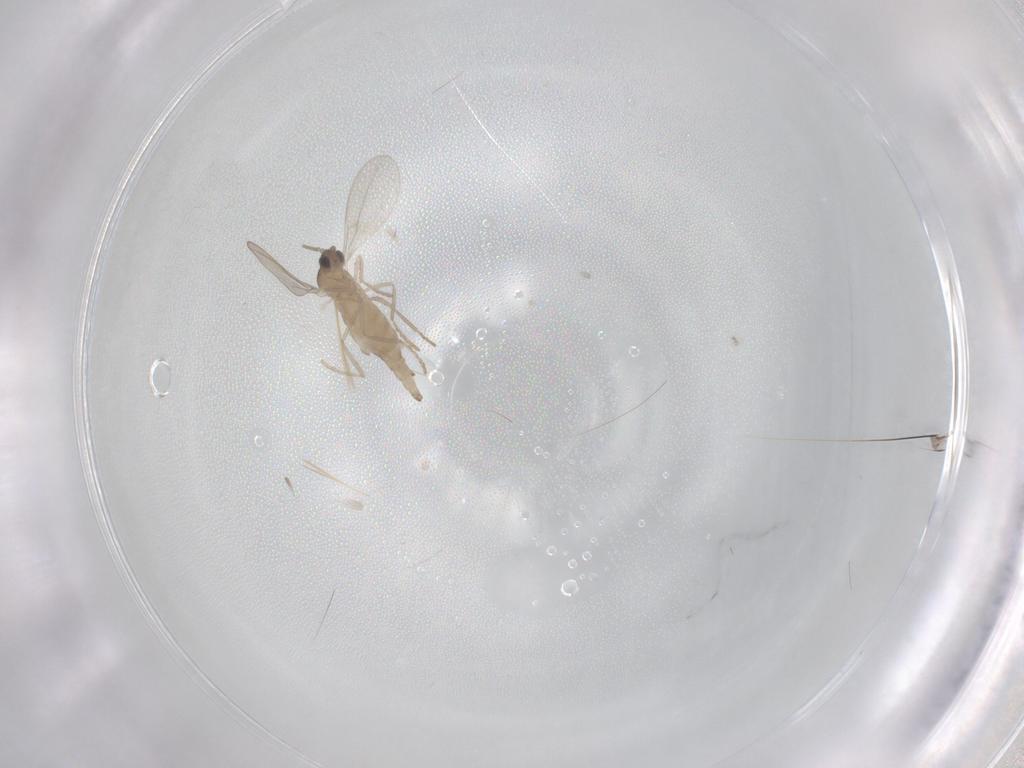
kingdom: Animalia
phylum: Arthropoda
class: Insecta
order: Diptera
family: Cecidomyiidae
